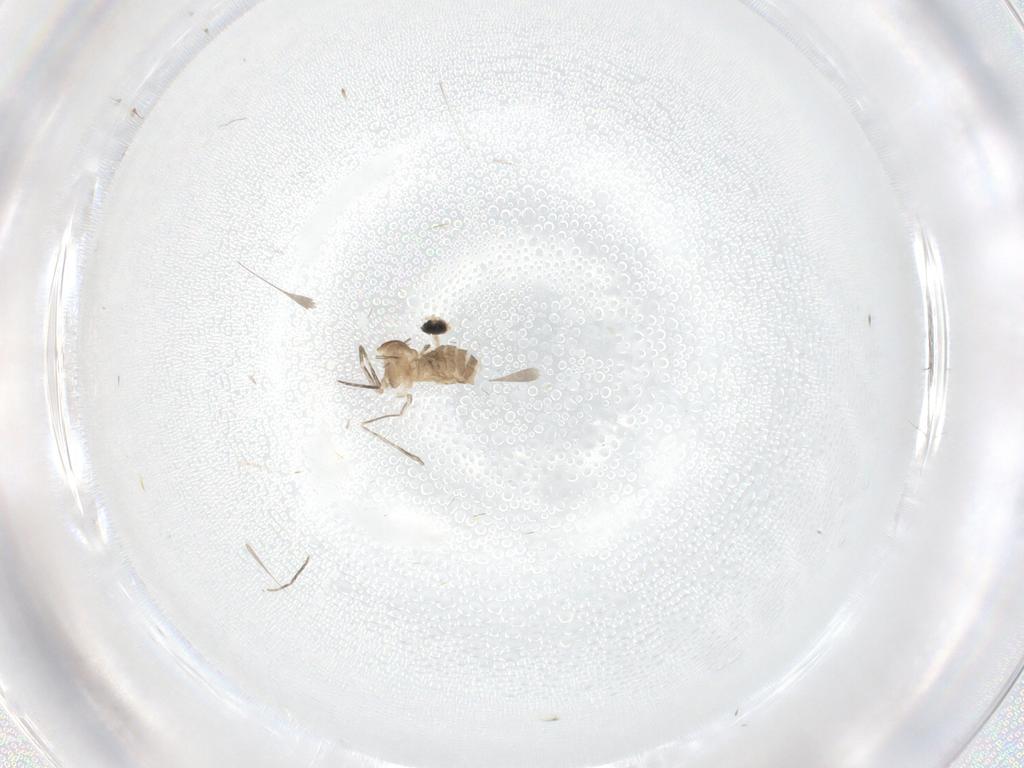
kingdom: Animalia
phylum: Arthropoda
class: Insecta
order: Diptera
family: Cecidomyiidae
